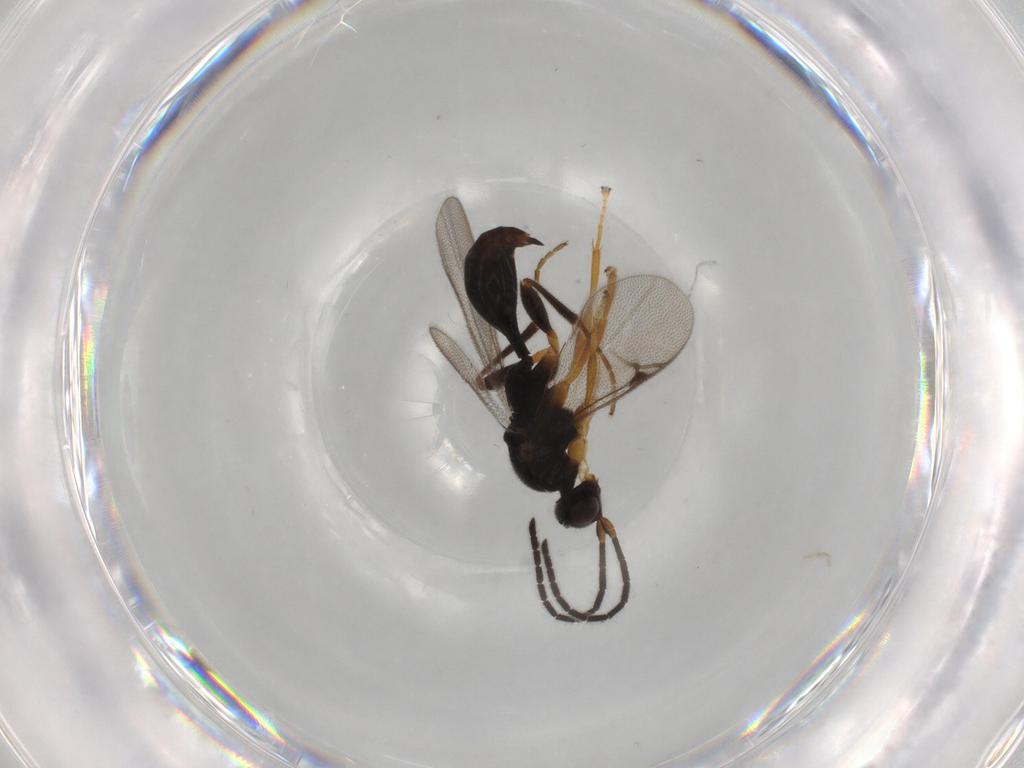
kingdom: Animalia
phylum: Arthropoda
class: Insecta
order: Hymenoptera
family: Proctotrupidae
